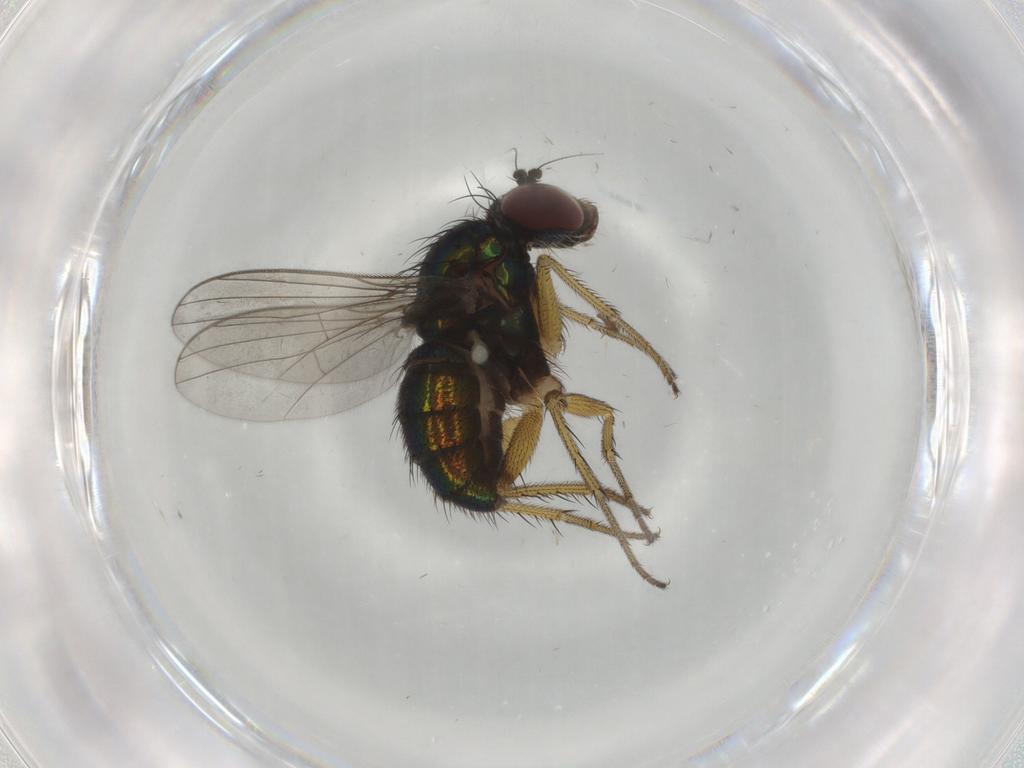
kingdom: Animalia
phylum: Arthropoda
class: Insecta
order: Diptera
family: Dolichopodidae
